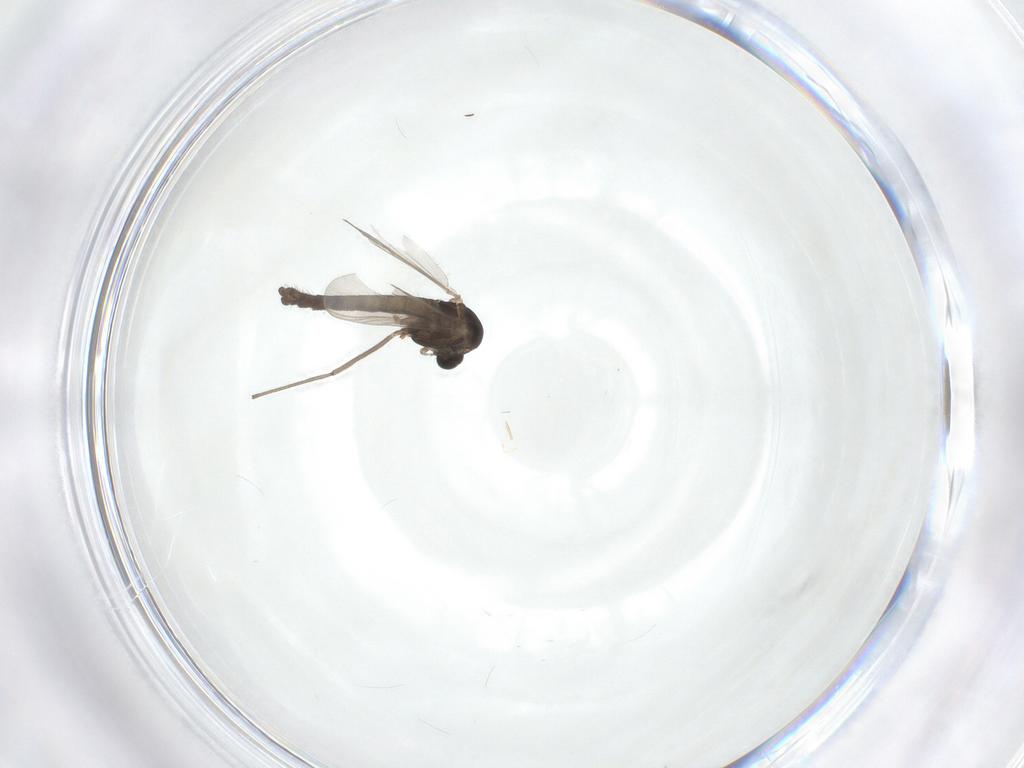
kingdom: Animalia
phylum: Arthropoda
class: Insecta
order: Diptera
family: Chironomidae
